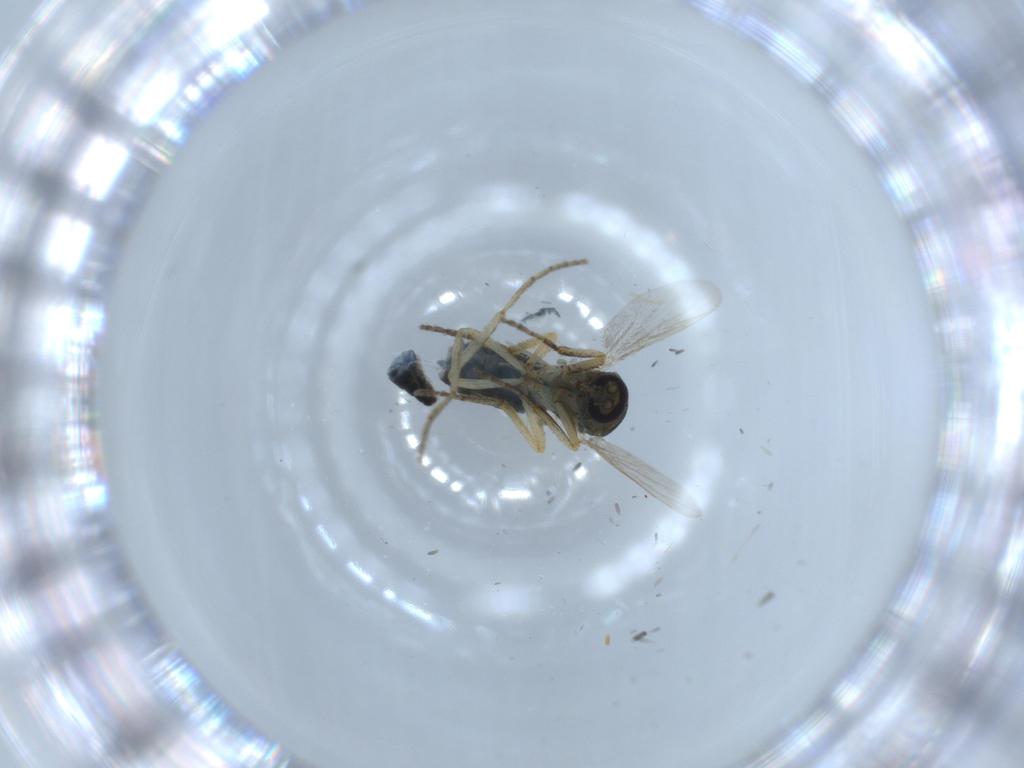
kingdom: Animalia
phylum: Arthropoda
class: Insecta
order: Diptera
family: Ceratopogonidae
